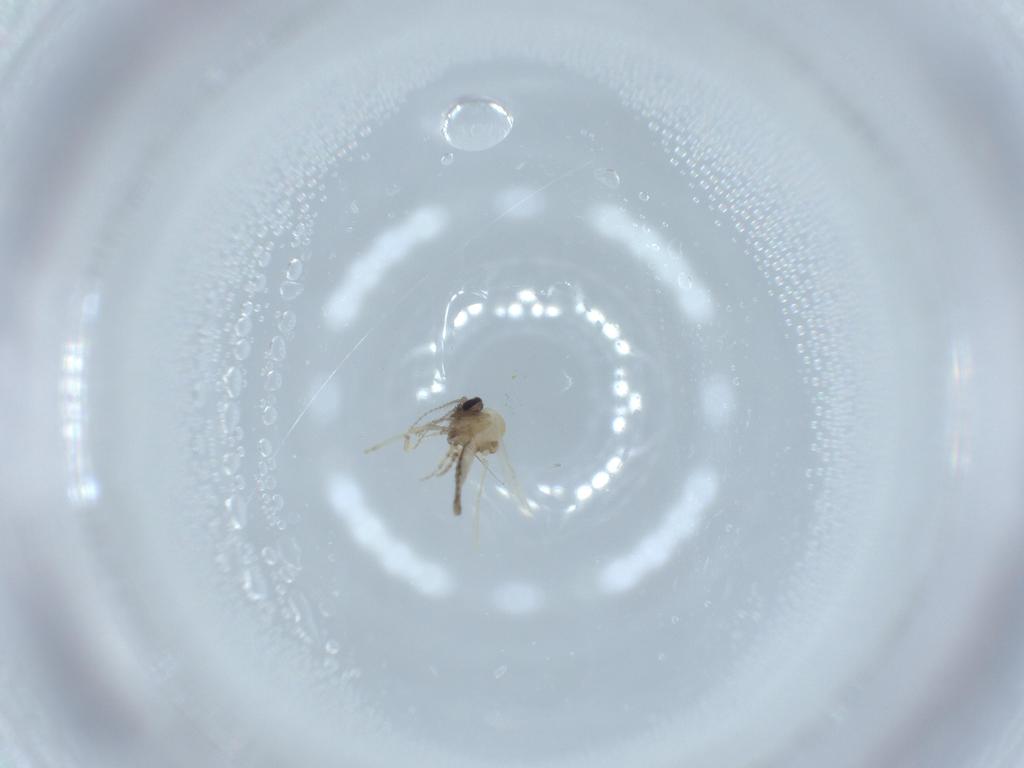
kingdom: Animalia
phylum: Arthropoda
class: Insecta
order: Diptera
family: Ceratopogonidae
